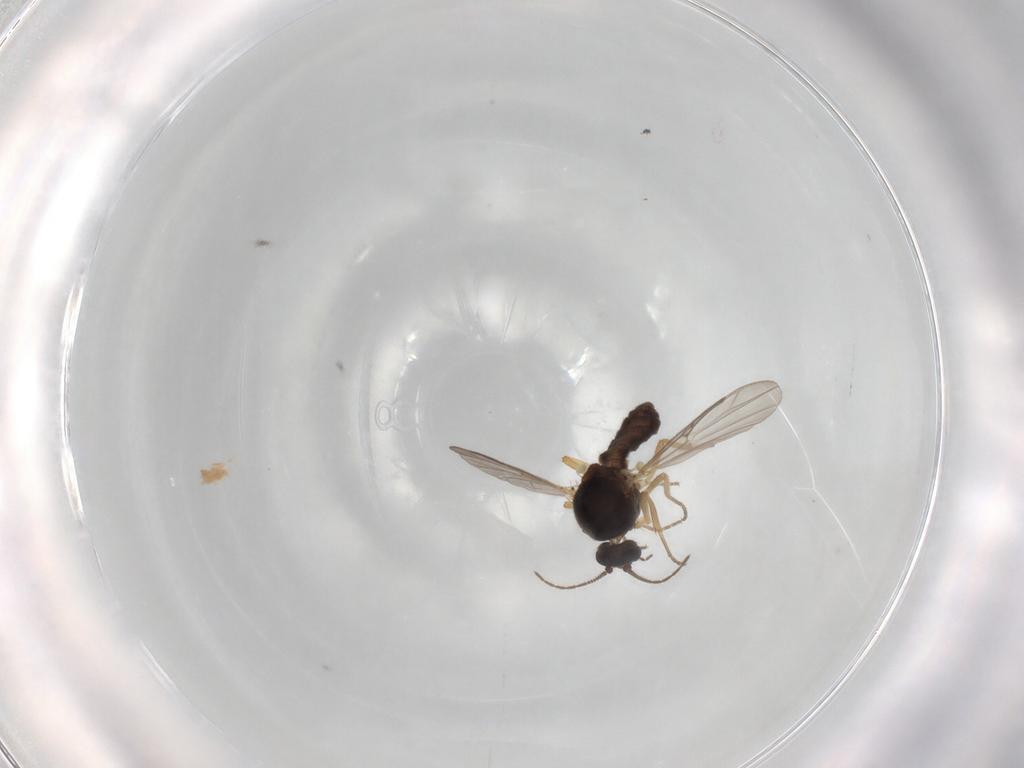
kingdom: Animalia
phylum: Arthropoda
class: Insecta
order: Diptera
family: Ceratopogonidae
